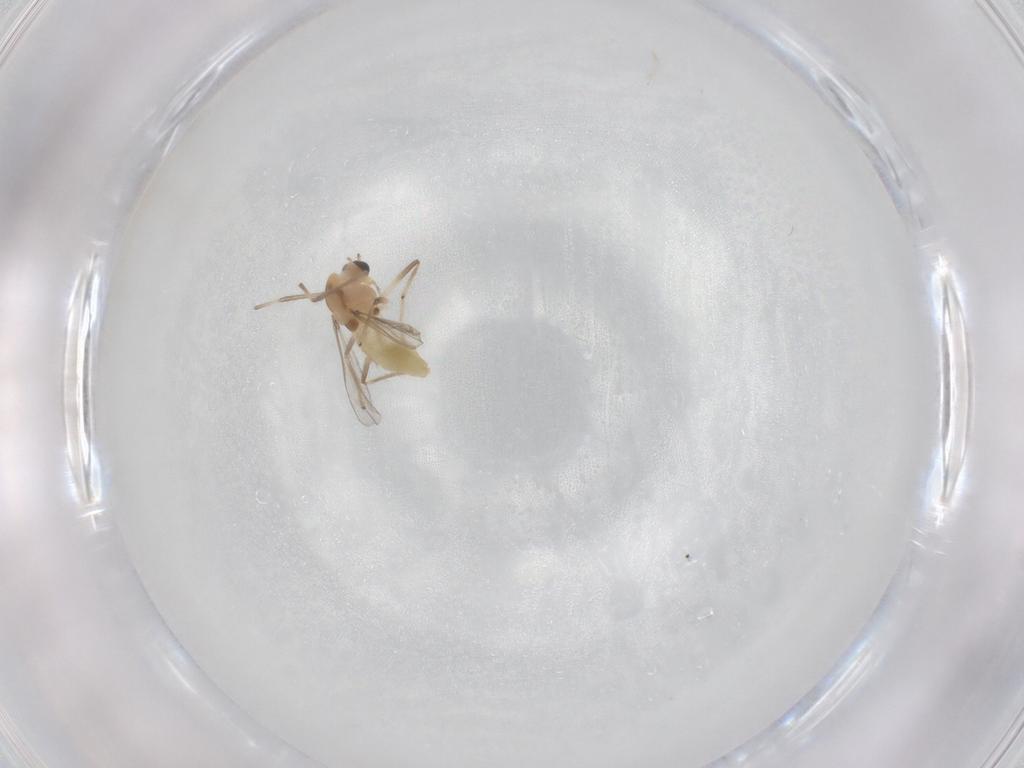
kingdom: Animalia
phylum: Arthropoda
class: Insecta
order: Diptera
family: Chironomidae
